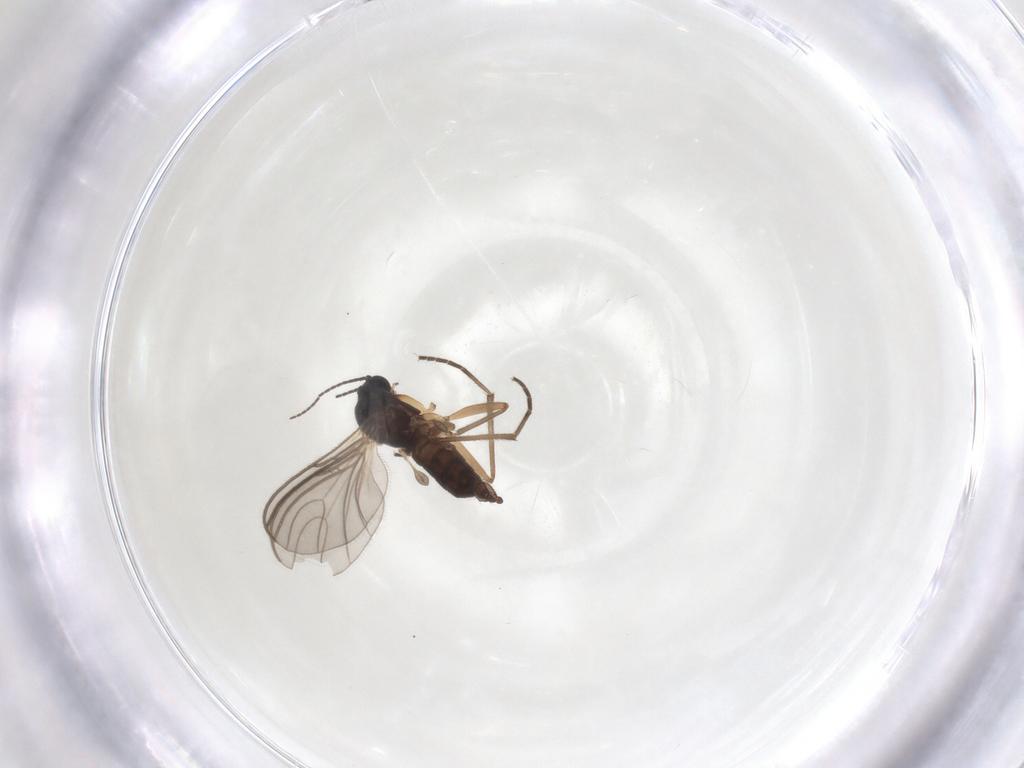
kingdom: Animalia
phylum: Arthropoda
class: Insecta
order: Diptera
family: Sciaridae
